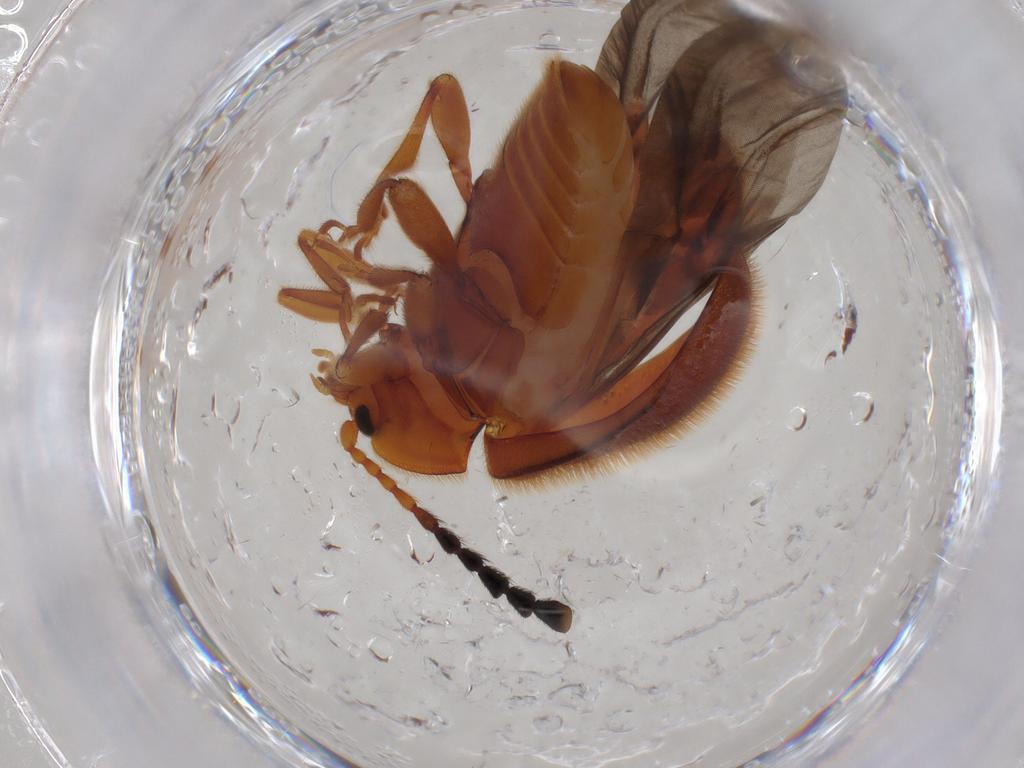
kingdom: Animalia
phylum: Arthropoda
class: Insecta
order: Coleoptera
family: Endomychidae
